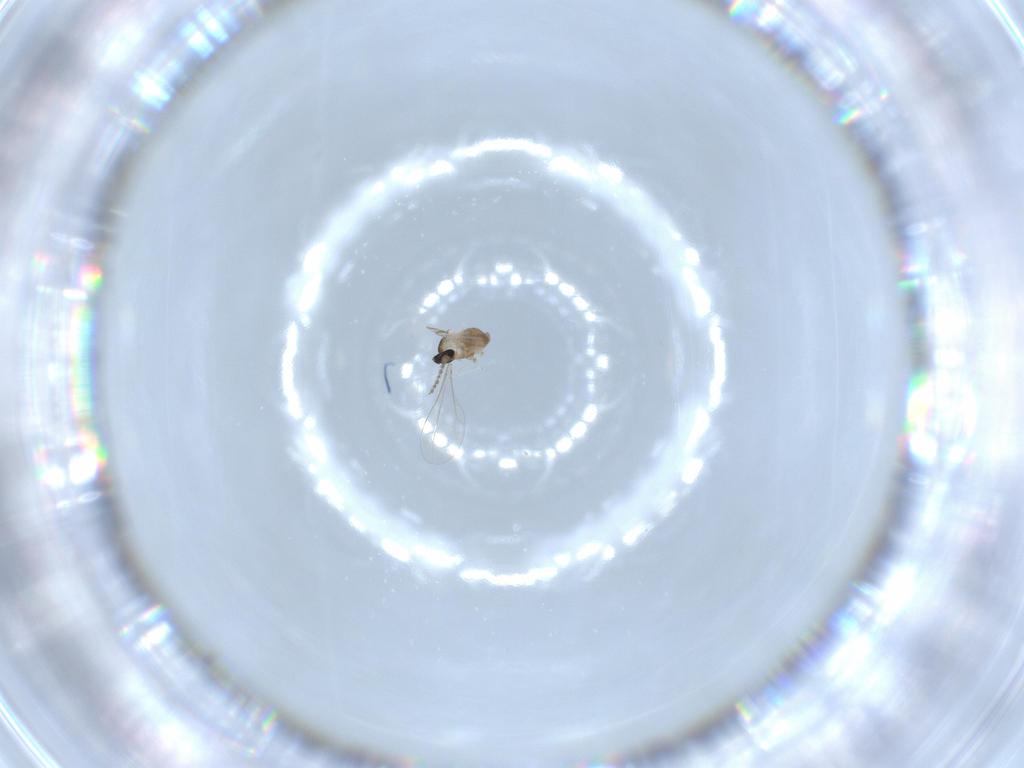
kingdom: Animalia
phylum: Arthropoda
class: Insecta
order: Diptera
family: Cecidomyiidae
